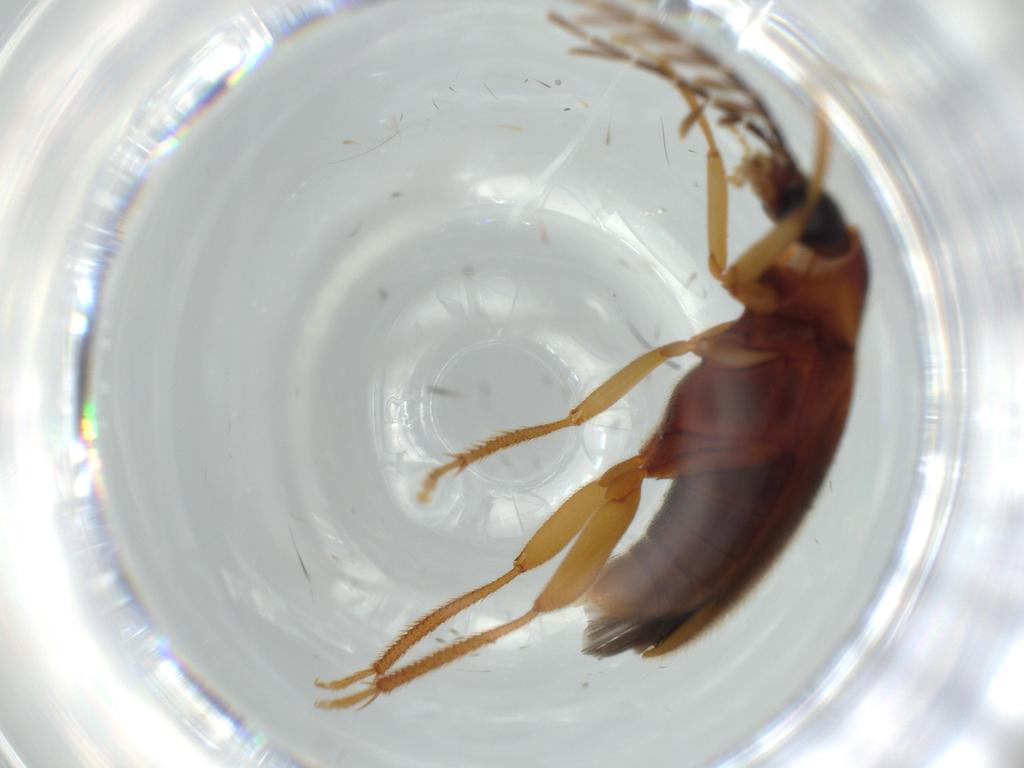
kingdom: Animalia
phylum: Arthropoda
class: Insecta
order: Coleoptera
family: Ptilodactylidae
